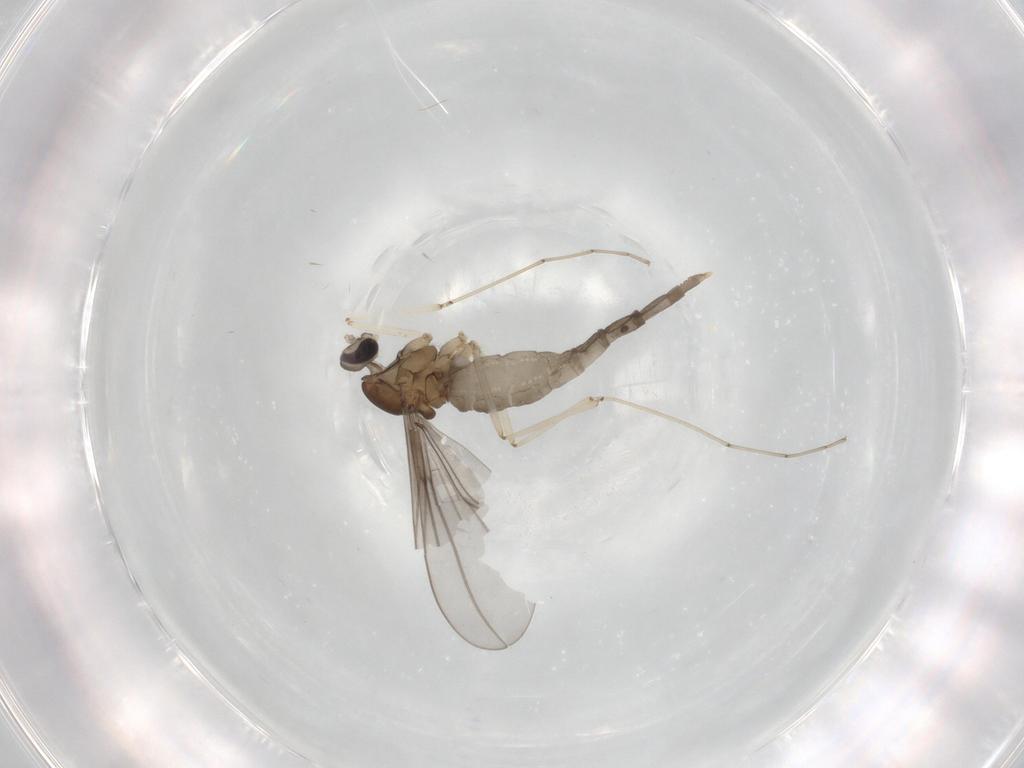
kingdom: Animalia
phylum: Arthropoda
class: Insecta
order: Diptera
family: Cecidomyiidae
